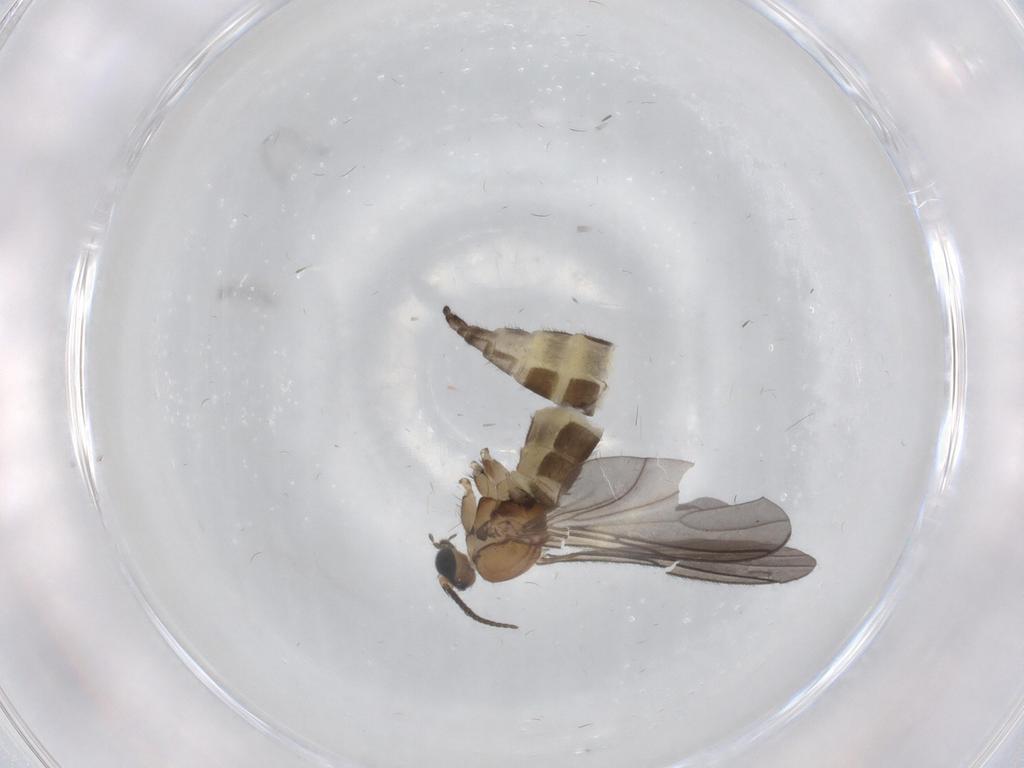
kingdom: Animalia
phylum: Arthropoda
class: Insecta
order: Diptera
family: Sciaridae
